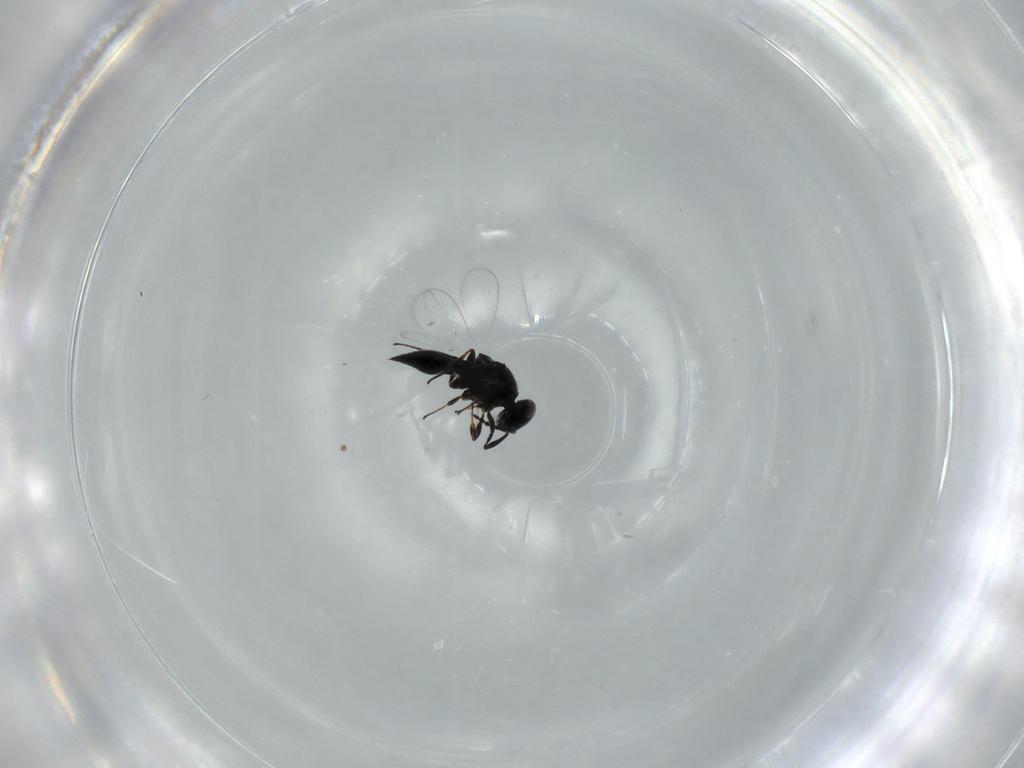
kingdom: Animalia
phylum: Arthropoda
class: Insecta
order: Hymenoptera
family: Platygastridae
